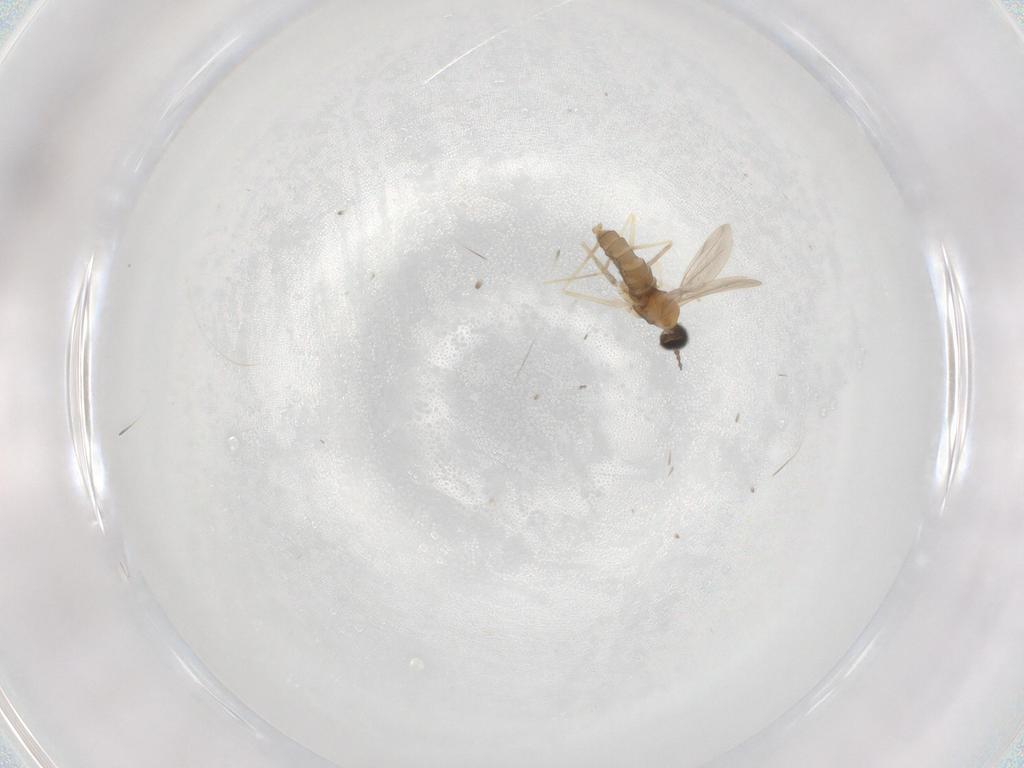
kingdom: Animalia
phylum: Arthropoda
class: Insecta
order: Diptera
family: Cecidomyiidae
